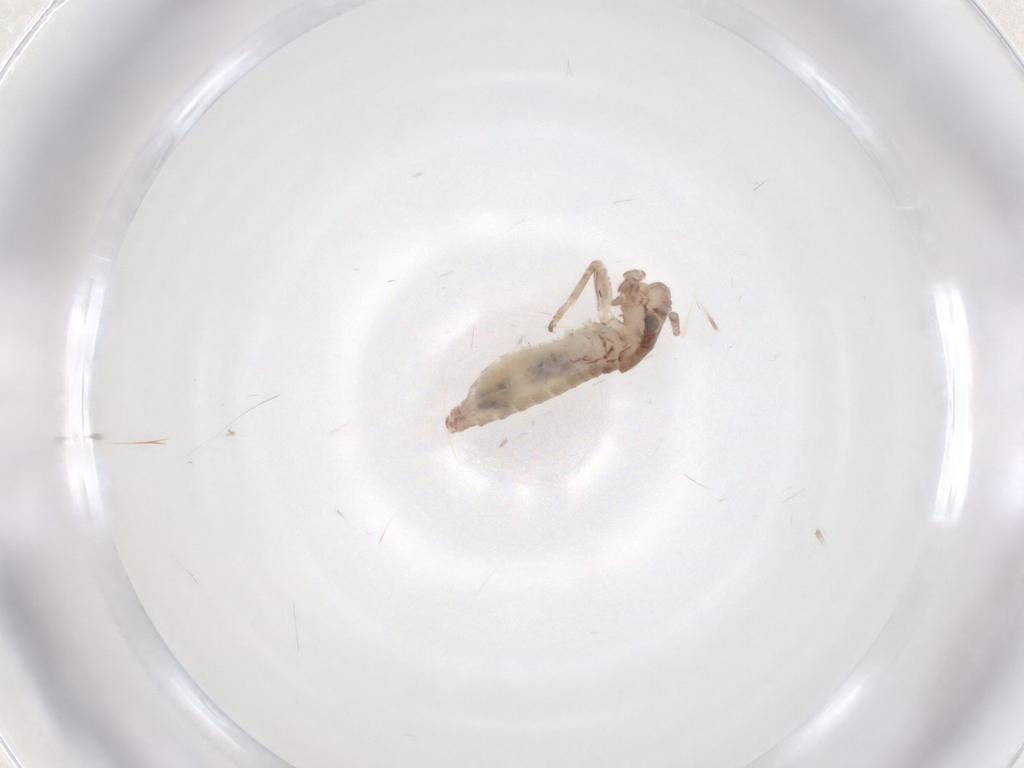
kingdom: Animalia
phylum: Arthropoda
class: Insecta
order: Orthoptera
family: Mogoplistidae
